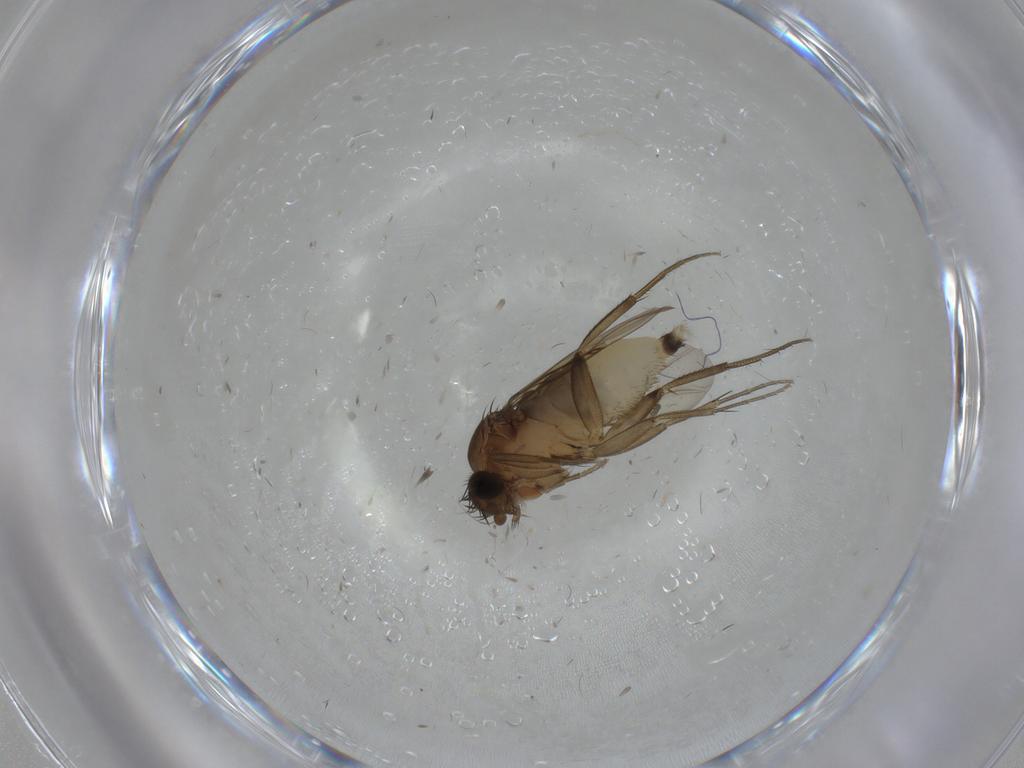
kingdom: Animalia
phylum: Arthropoda
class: Insecta
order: Diptera
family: Phoridae
